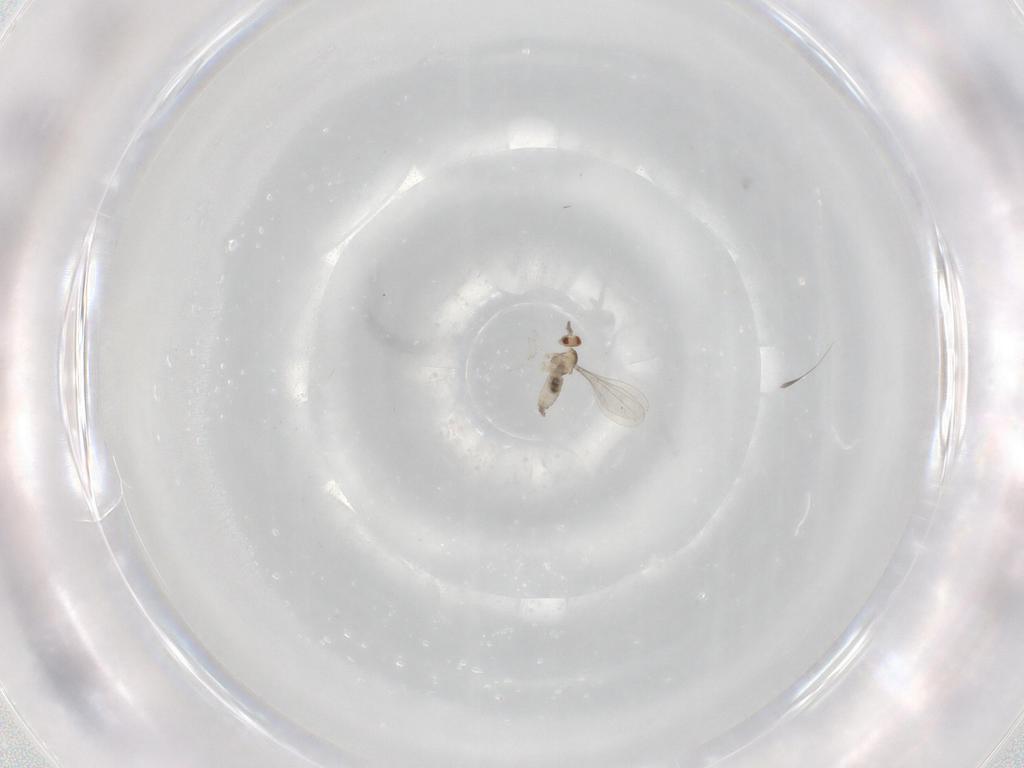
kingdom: Animalia
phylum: Arthropoda
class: Insecta
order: Diptera
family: Cecidomyiidae
